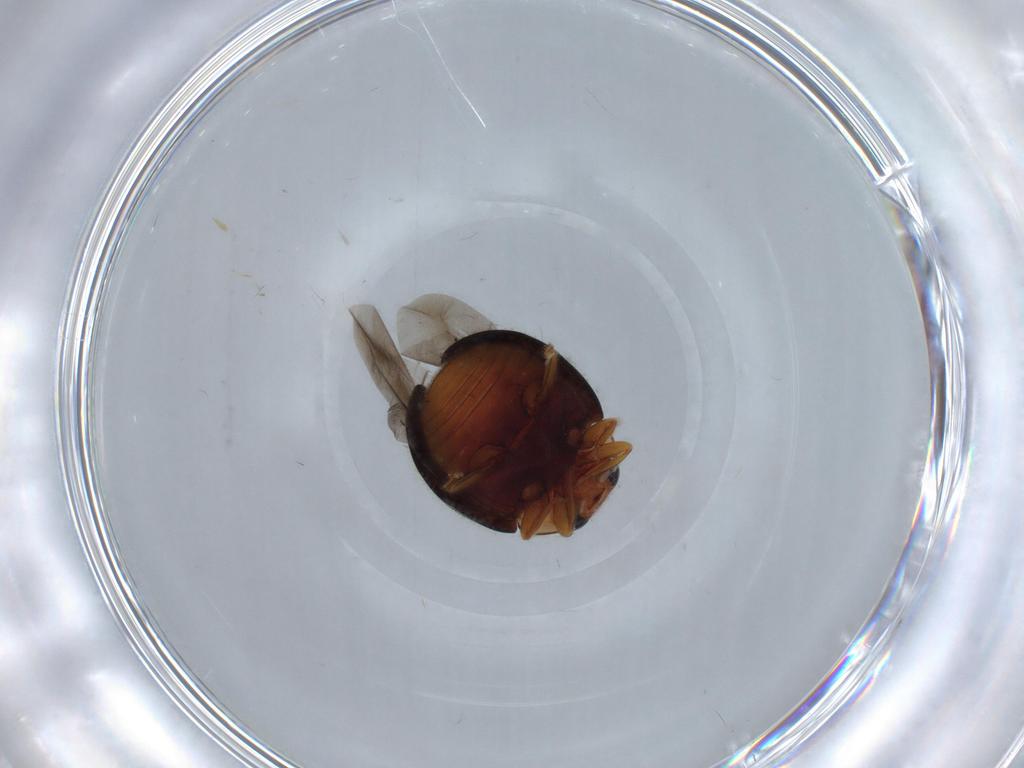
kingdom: Animalia
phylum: Arthropoda
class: Insecta
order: Coleoptera
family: Coccinellidae
